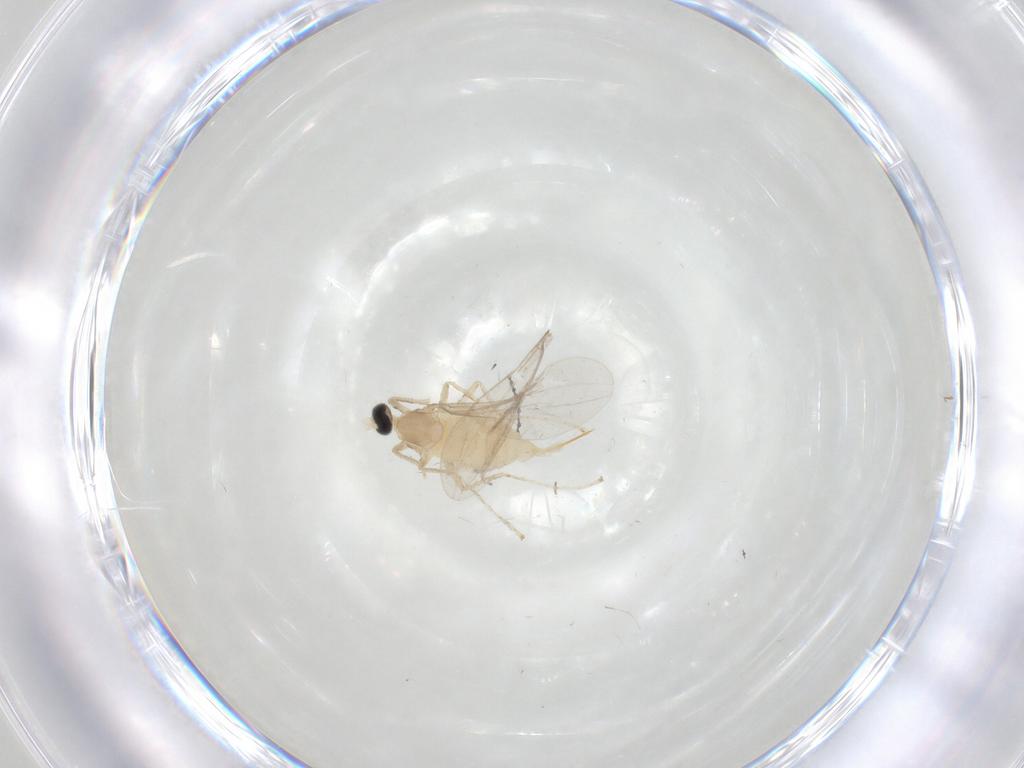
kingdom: Animalia
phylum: Arthropoda
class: Insecta
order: Diptera
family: Cecidomyiidae
